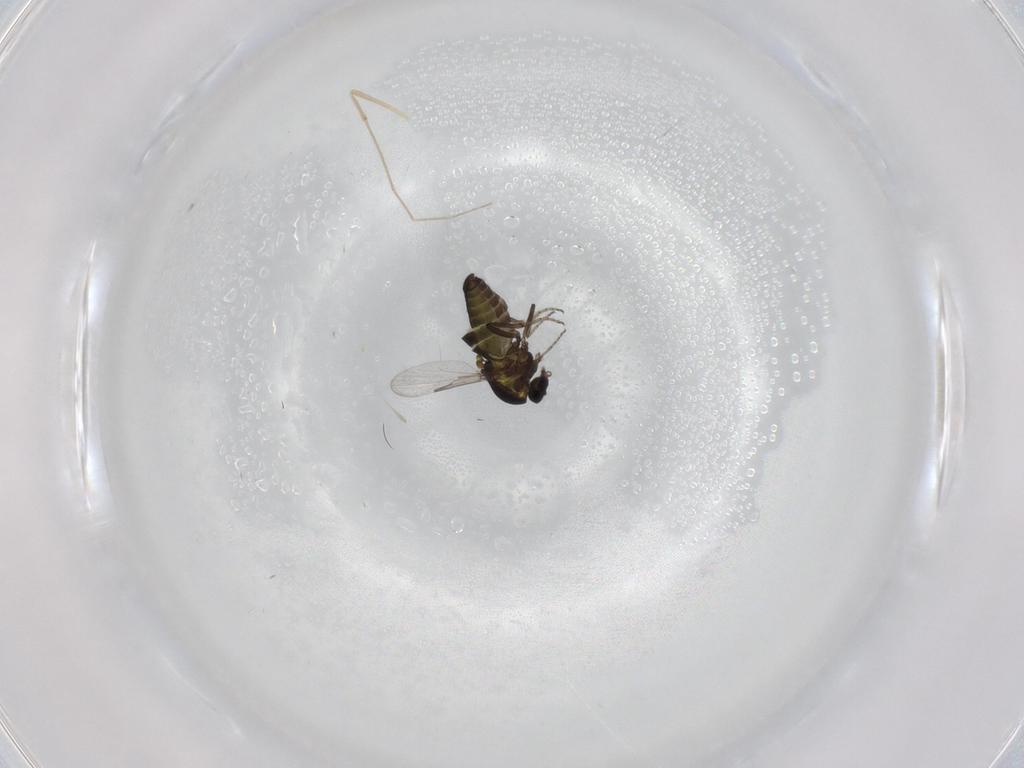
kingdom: Animalia
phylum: Arthropoda
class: Insecta
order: Diptera
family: Ceratopogonidae
